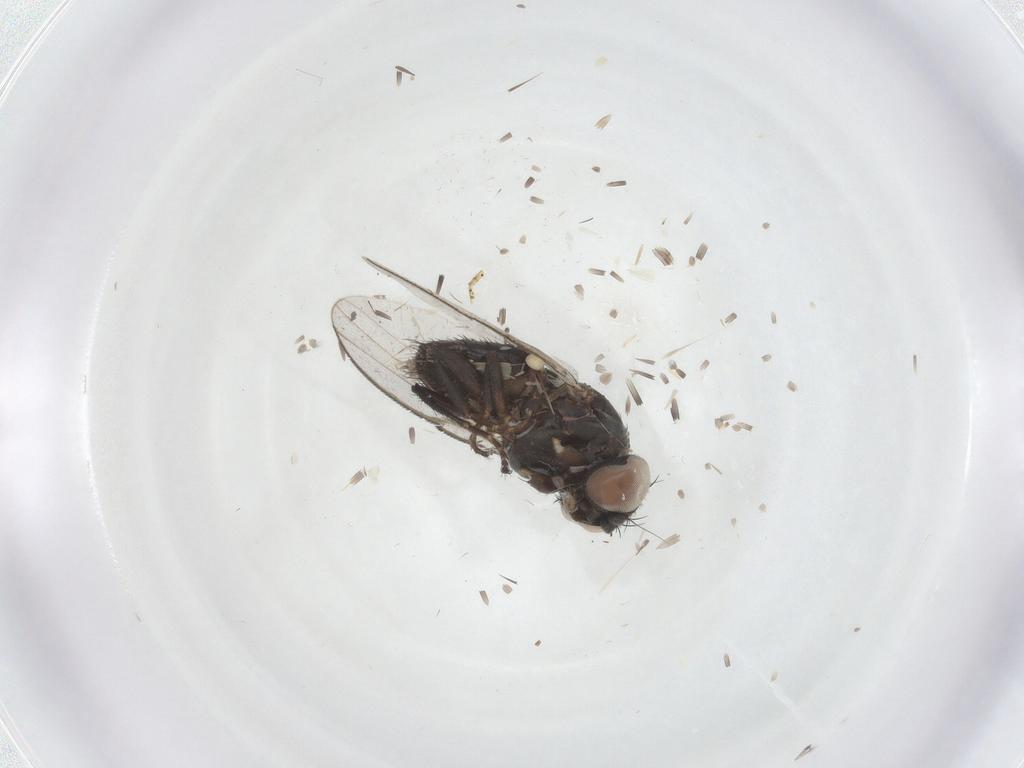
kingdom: Animalia
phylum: Arthropoda
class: Insecta
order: Diptera
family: Milichiidae
